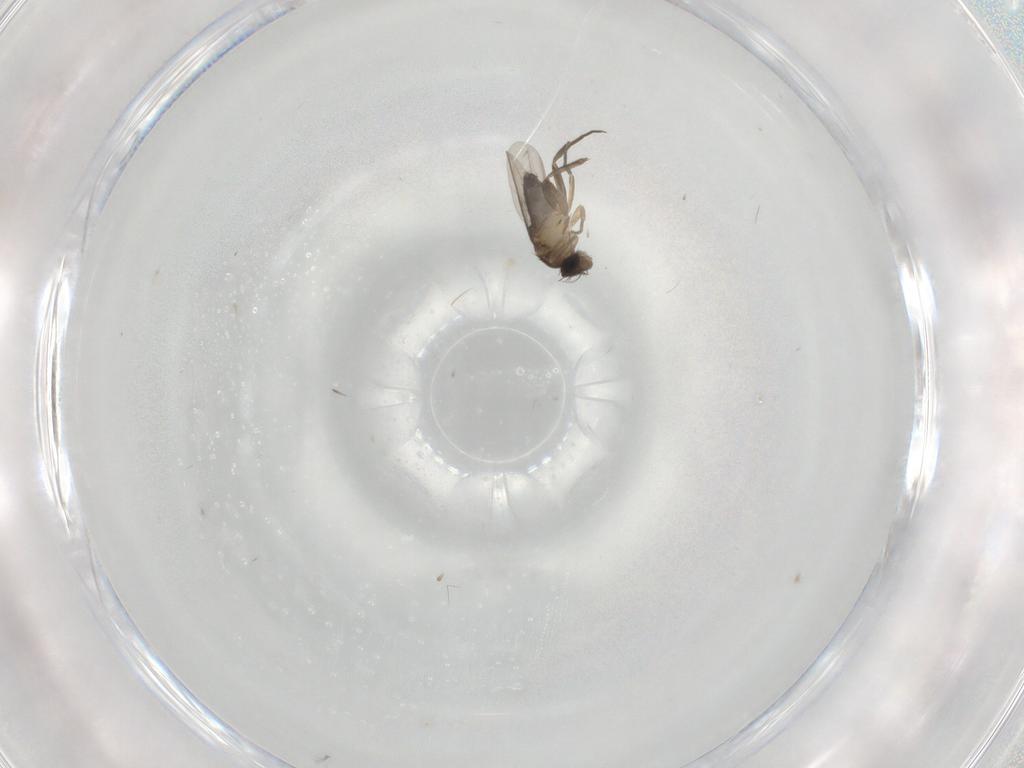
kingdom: Animalia
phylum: Arthropoda
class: Insecta
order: Diptera
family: Phoridae
